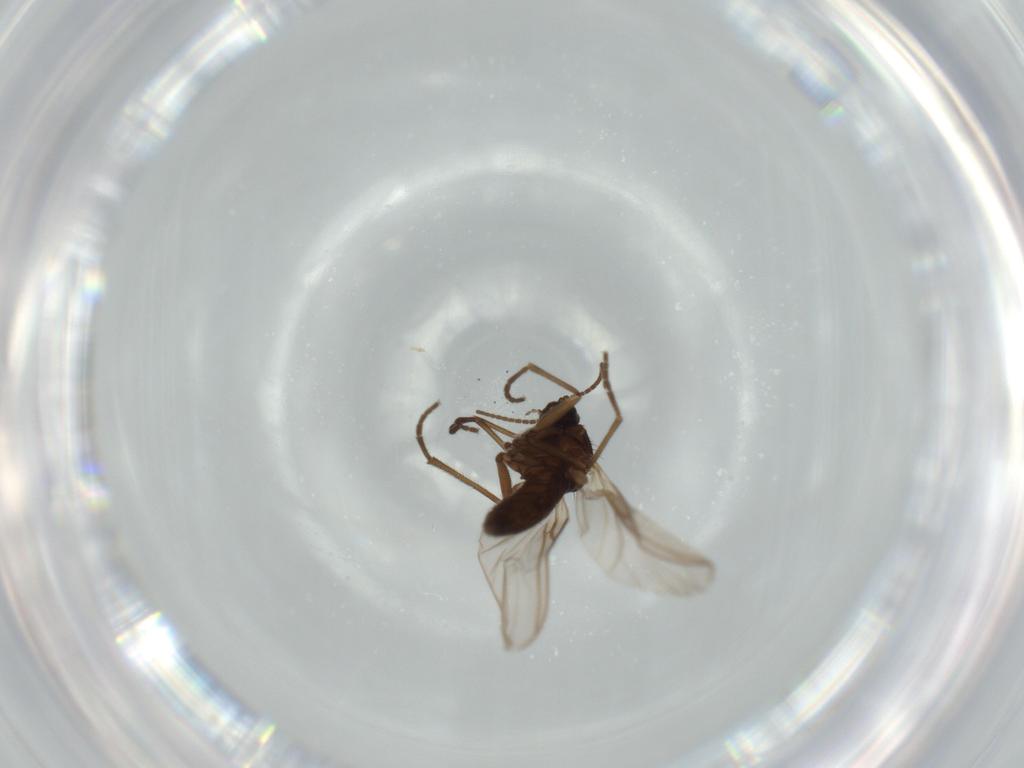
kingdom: Animalia
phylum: Arthropoda
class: Insecta
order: Diptera
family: Sciaridae
